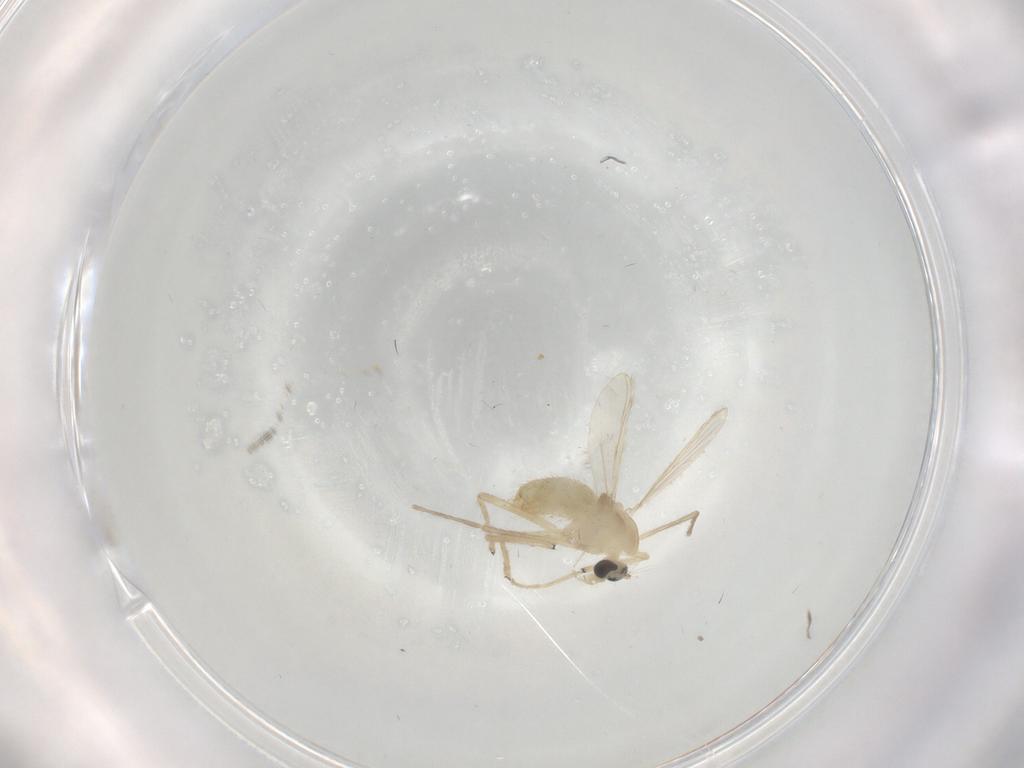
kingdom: Animalia
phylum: Arthropoda
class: Insecta
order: Diptera
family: Chironomidae
